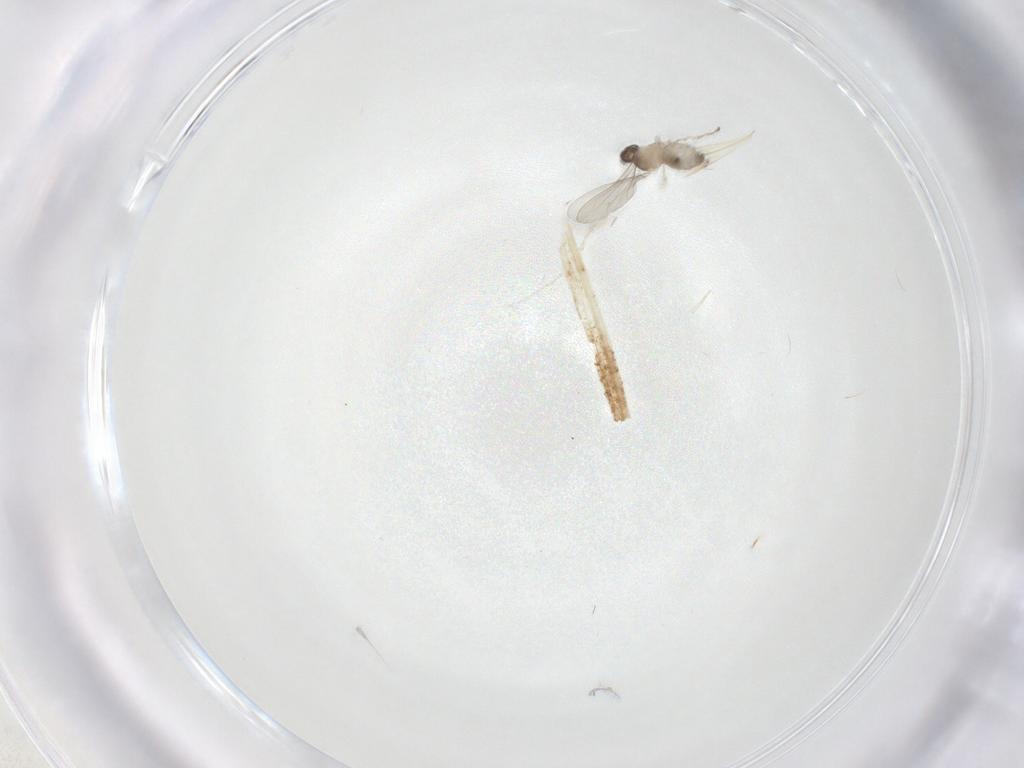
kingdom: Animalia
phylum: Arthropoda
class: Insecta
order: Diptera
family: Cecidomyiidae
